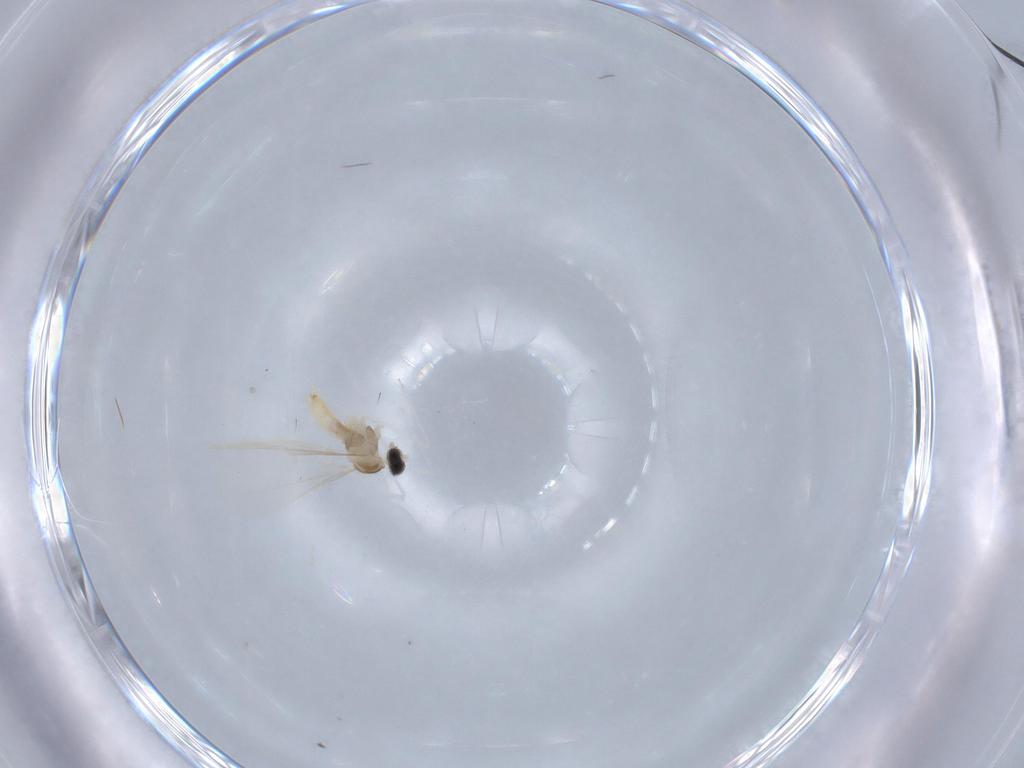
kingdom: Animalia
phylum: Arthropoda
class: Insecta
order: Diptera
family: Cecidomyiidae
